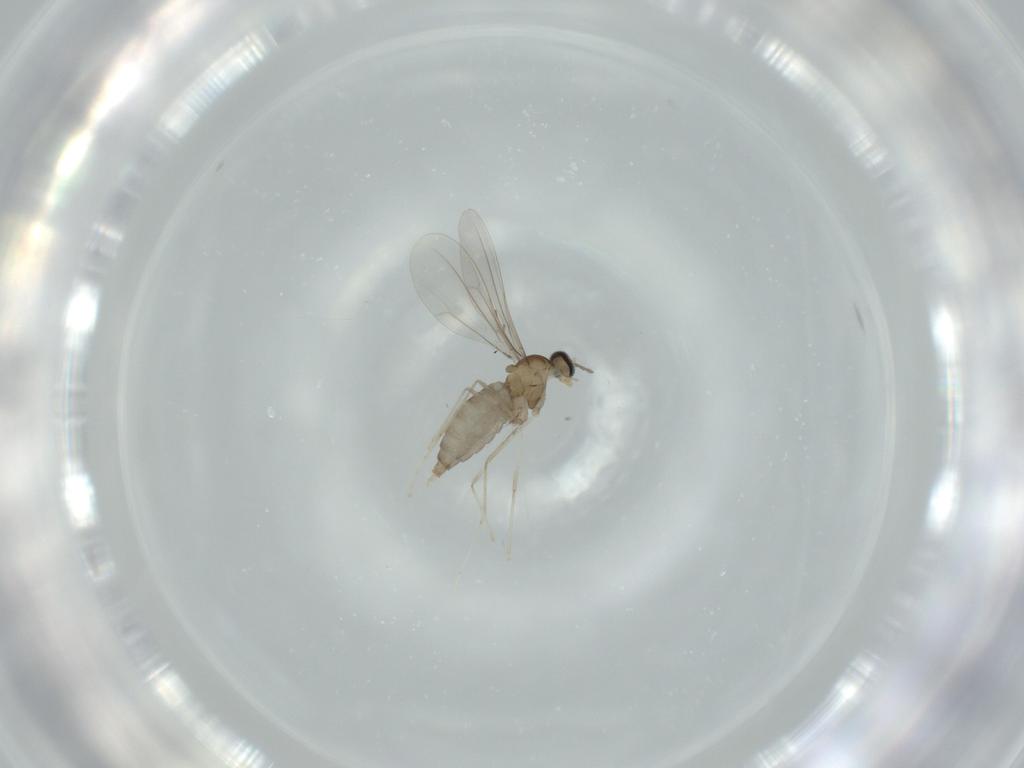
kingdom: Animalia
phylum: Arthropoda
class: Insecta
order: Diptera
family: Cecidomyiidae
